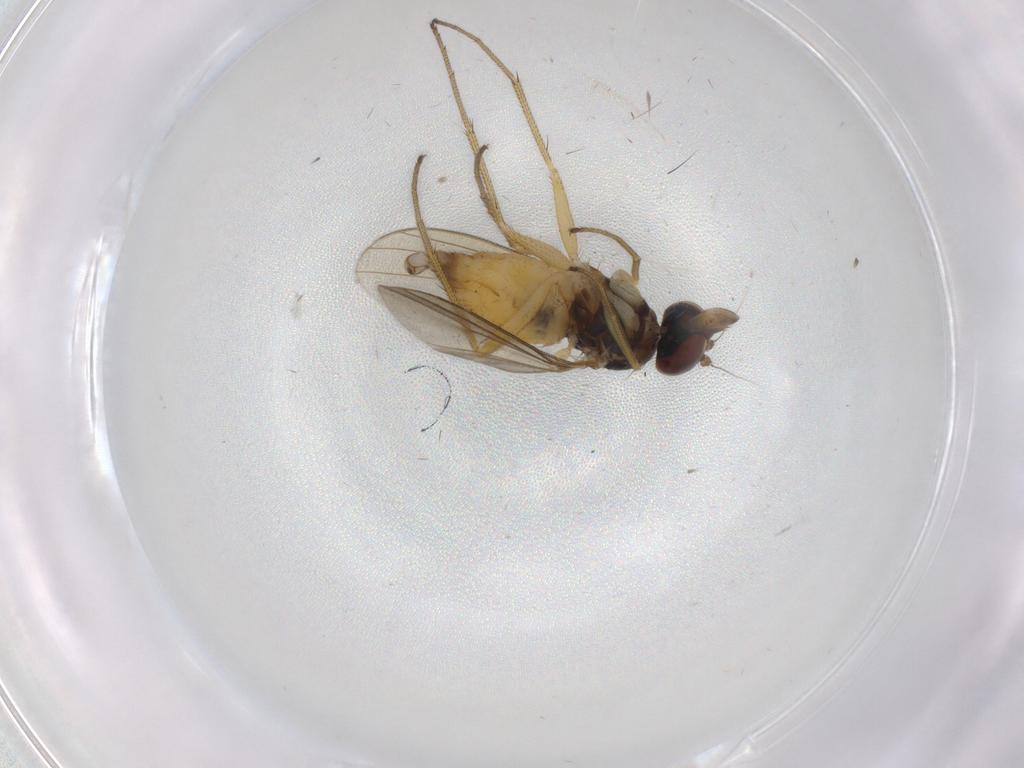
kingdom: Animalia
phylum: Arthropoda
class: Insecta
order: Diptera
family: Dolichopodidae
